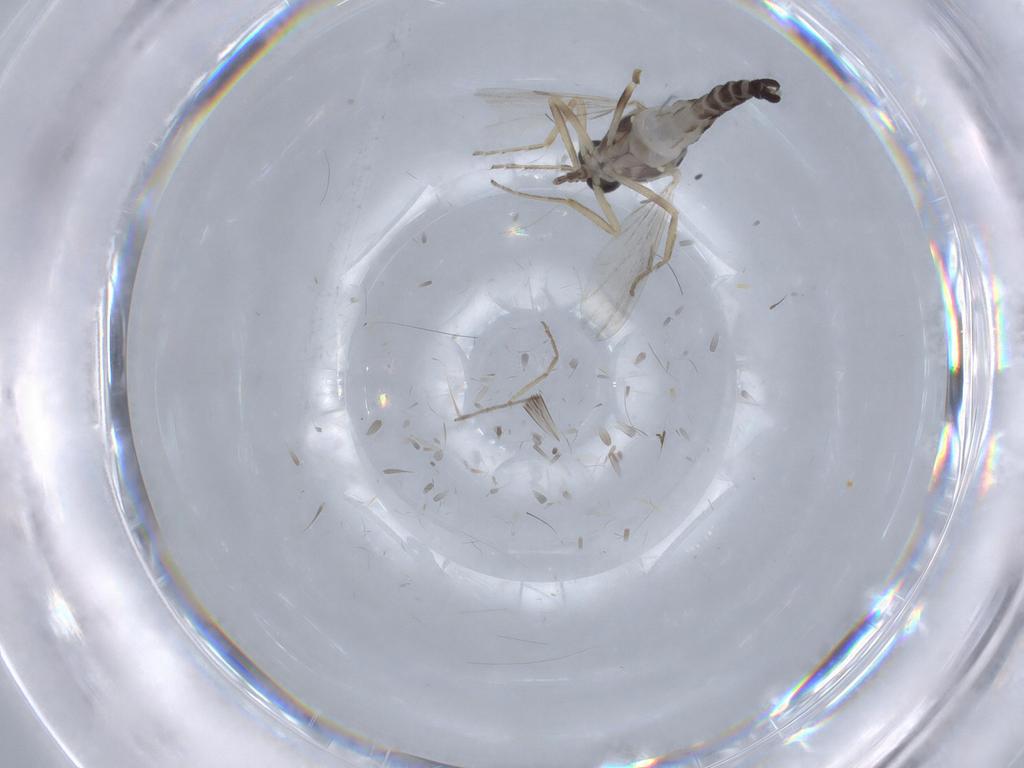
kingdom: Animalia
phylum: Arthropoda
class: Insecta
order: Diptera
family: Ceratopogonidae
